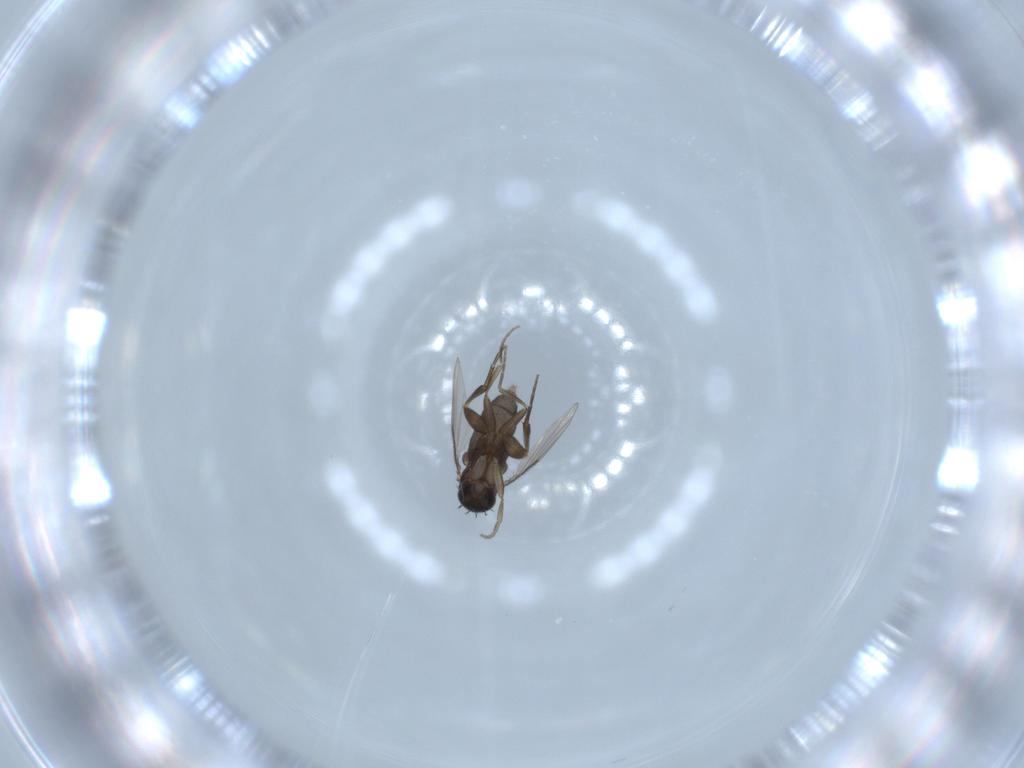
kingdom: Animalia
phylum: Arthropoda
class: Insecta
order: Diptera
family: Phoridae
